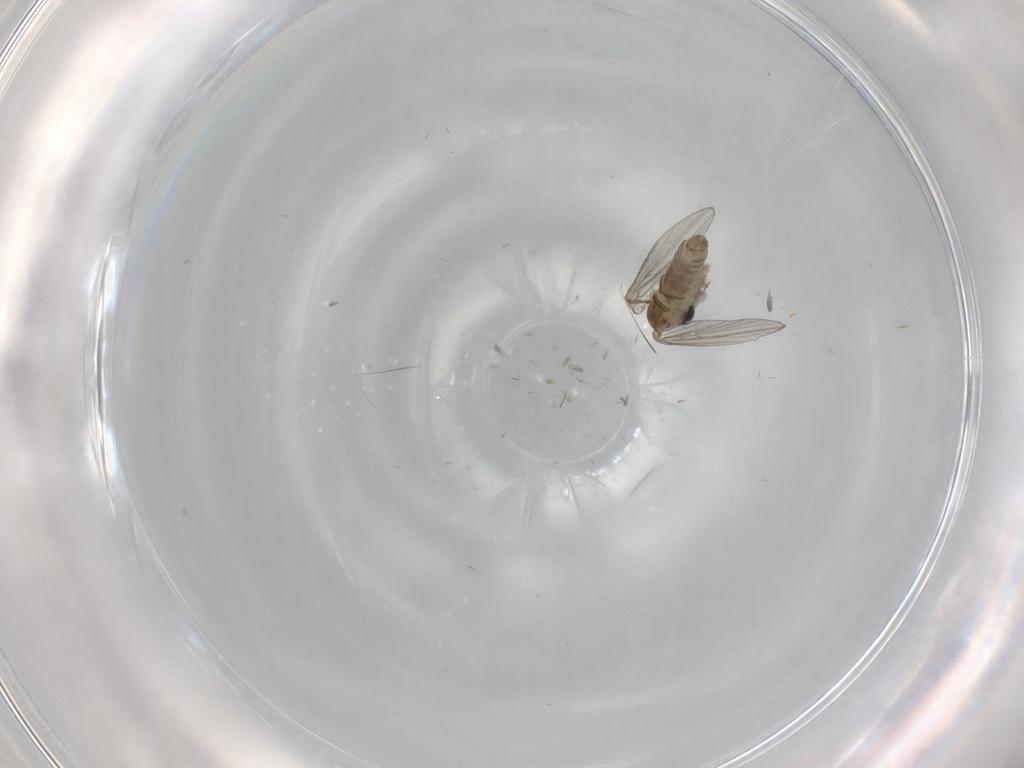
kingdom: Animalia
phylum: Arthropoda
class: Insecta
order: Diptera
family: Cecidomyiidae
